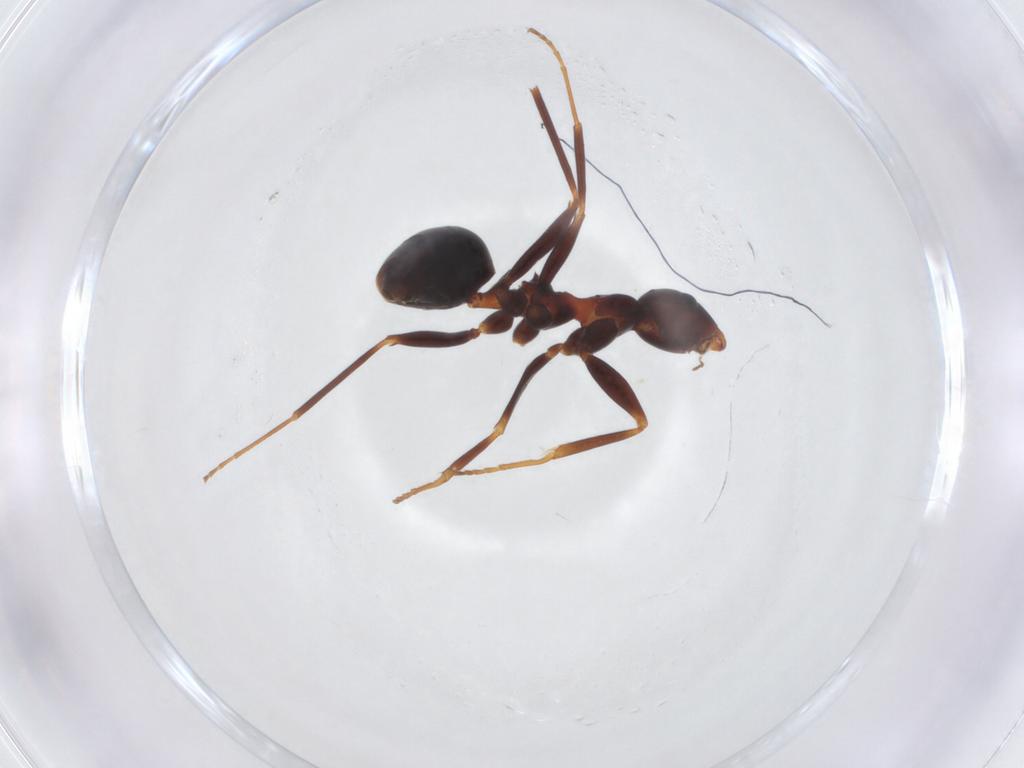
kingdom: Animalia
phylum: Arthropoda
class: Insecta
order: Hymenoptera
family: Formicidae
